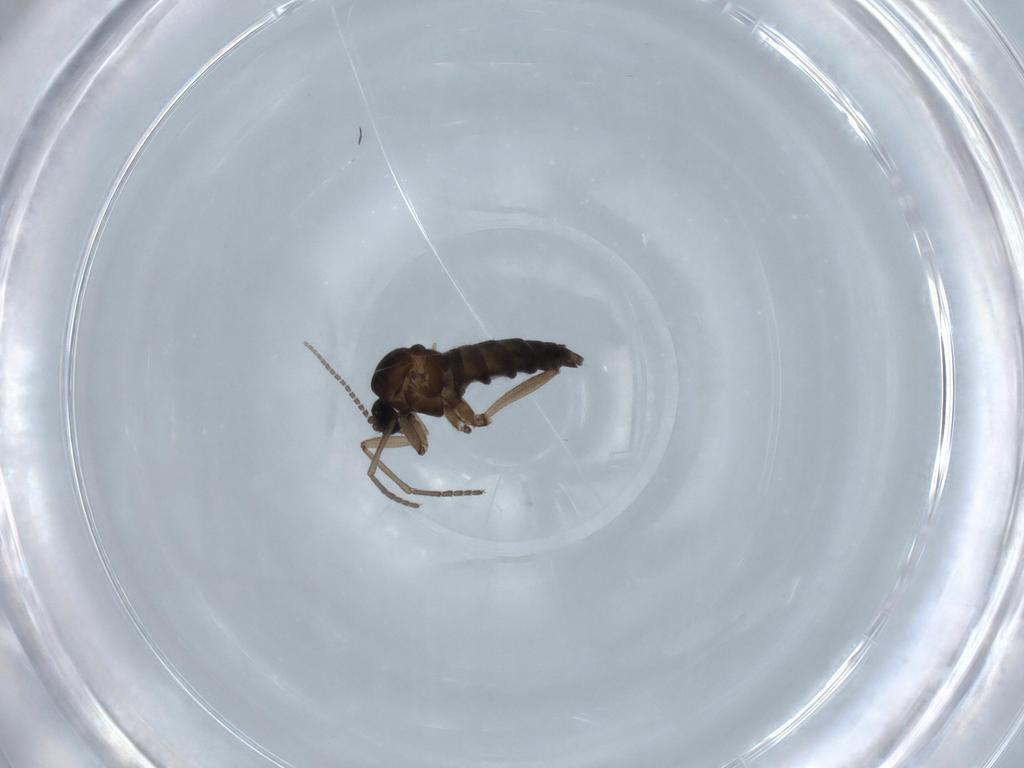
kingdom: Animalia
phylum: Arthropoda
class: Insecta
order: Diptera
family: Sciaridae
